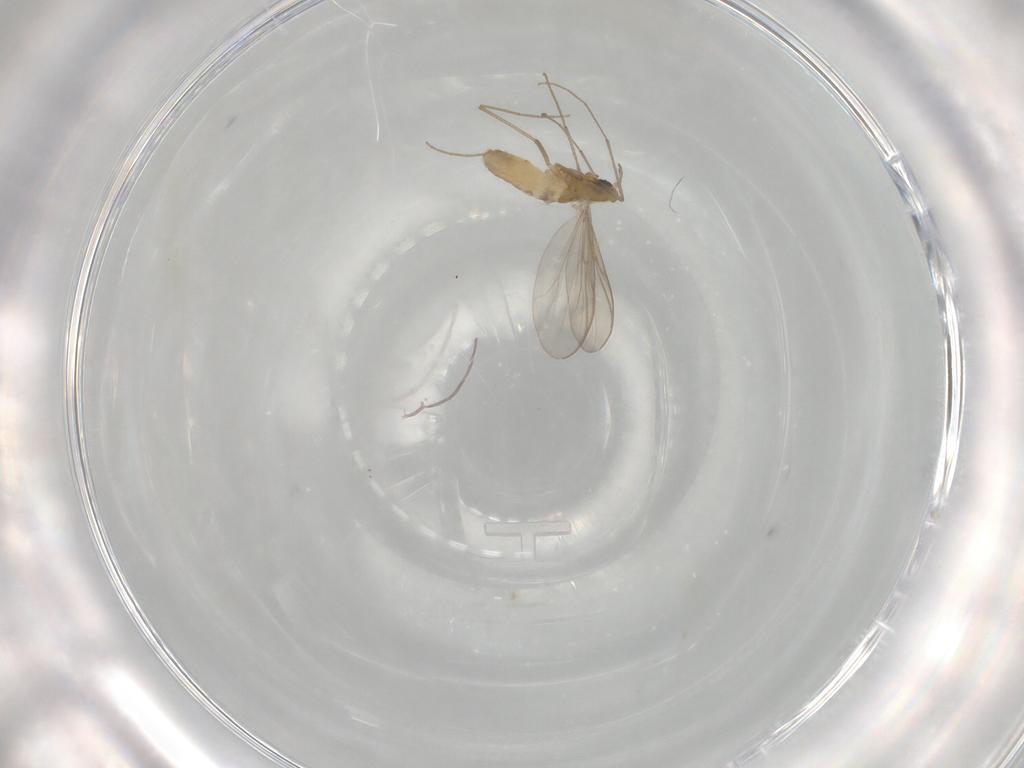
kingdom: Animalia
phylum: Arthropoda
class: Insecta
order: Diptera
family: Chironomidae
